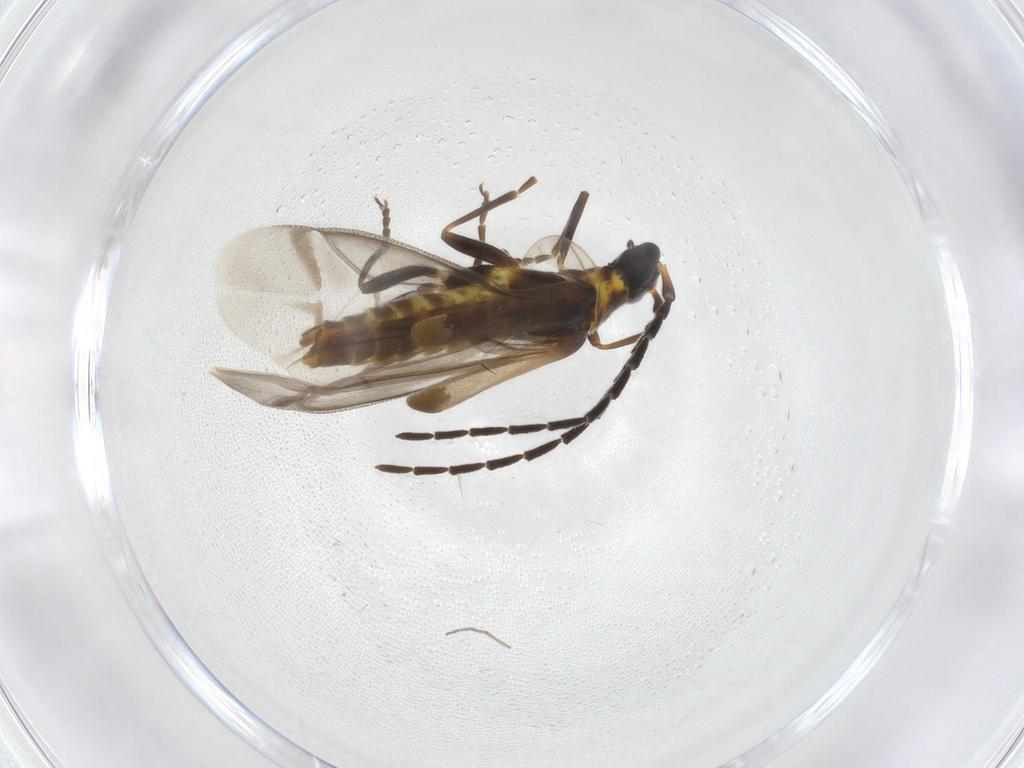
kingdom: Animalia
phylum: Arthropoda
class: Insecta
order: Coleoptera
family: Cantharidae
